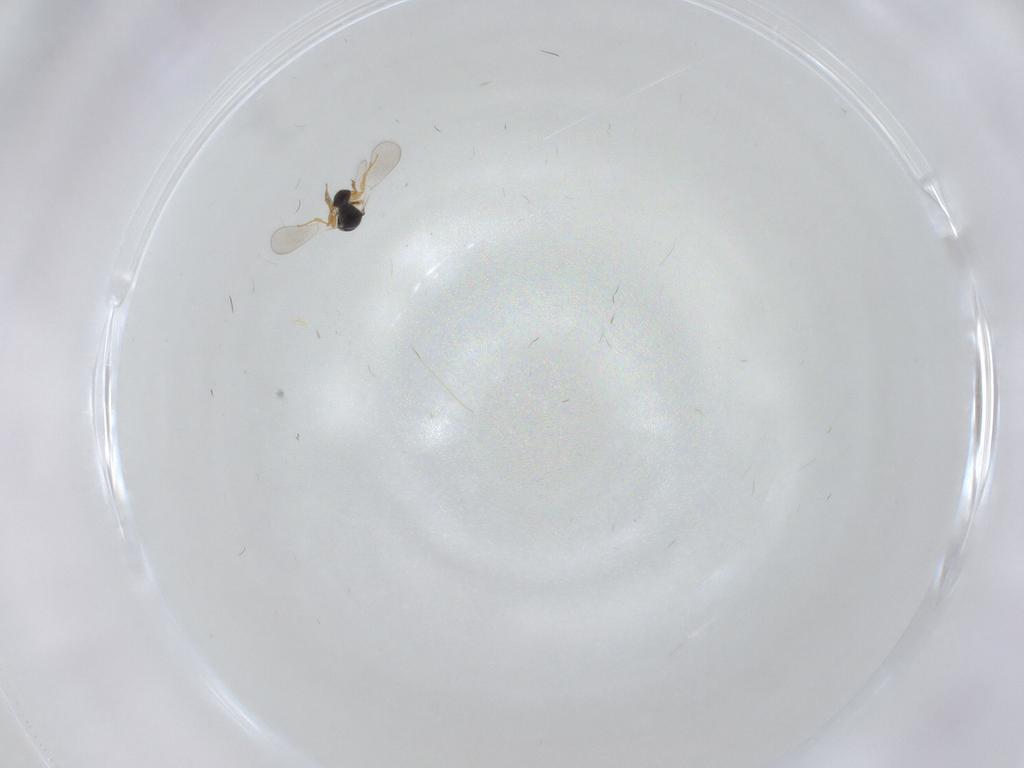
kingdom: Animalia
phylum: Arthropoda
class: Insecta
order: Hymenoptera
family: Platygastridae
